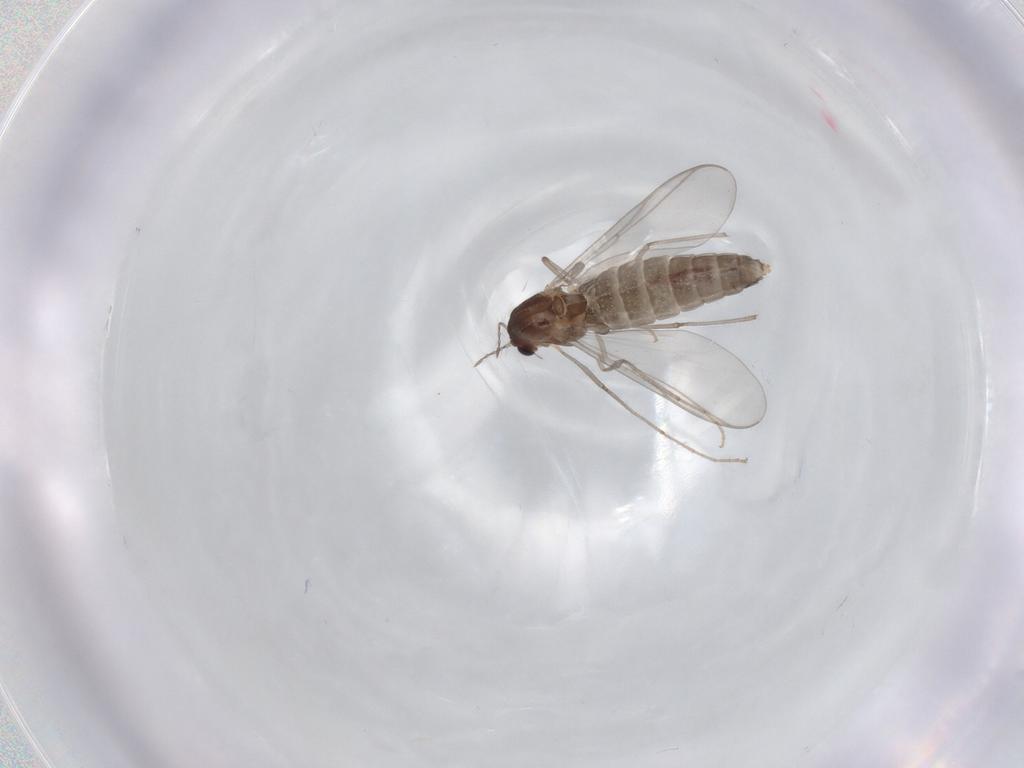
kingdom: Animalia
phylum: Arthropoda
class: Insecta
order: Diptera
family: Chironomidae
